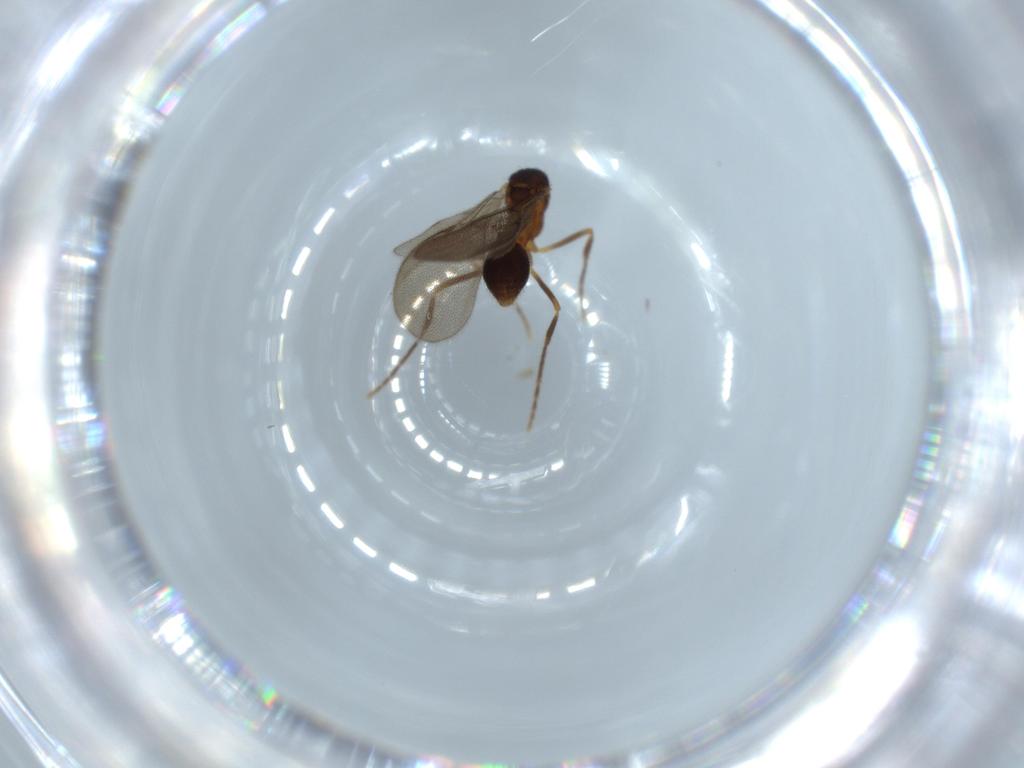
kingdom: Animalia
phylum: Arthropoda
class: Insecta
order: Hymenoptera
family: Formicidae
